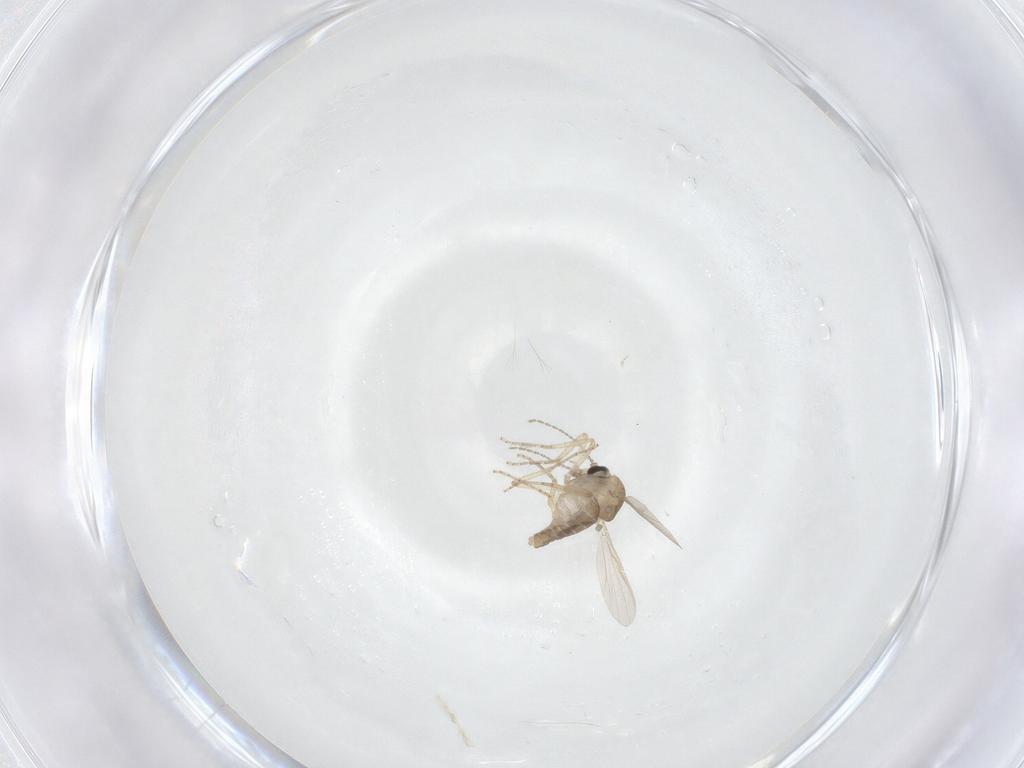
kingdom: Animalia
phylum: Arthropoda
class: Insecta
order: Diptera
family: Ceratopogonidae
